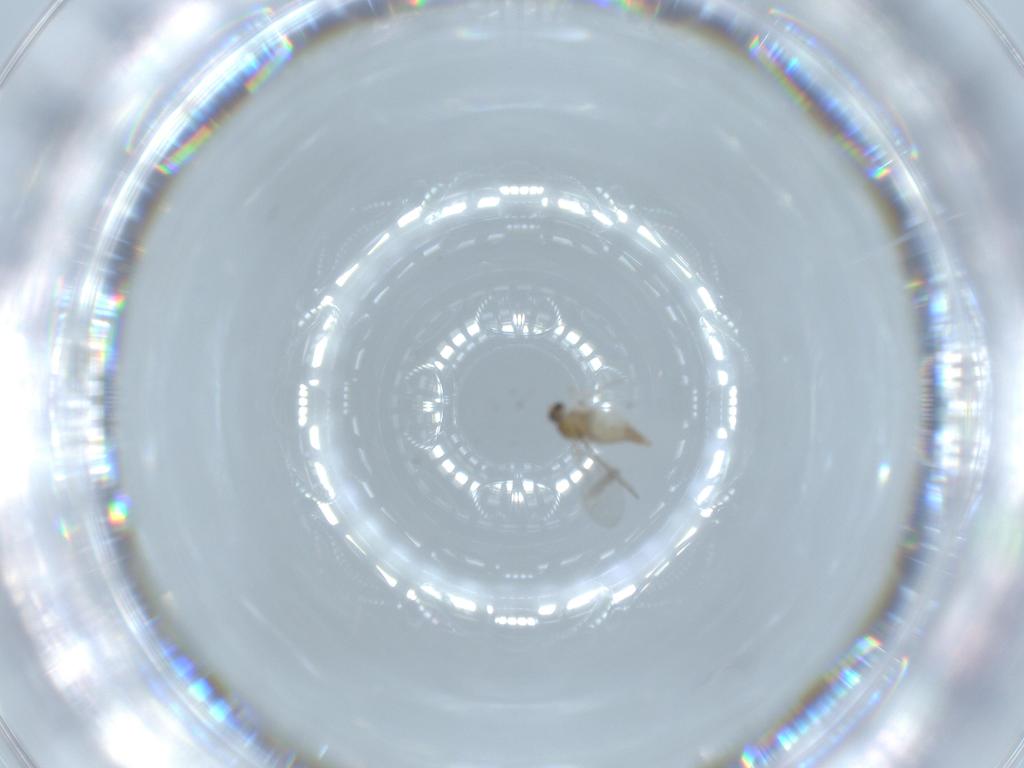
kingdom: Animalia
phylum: Arthropoda
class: Insecta
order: Diptera
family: Cecidomyiidae
